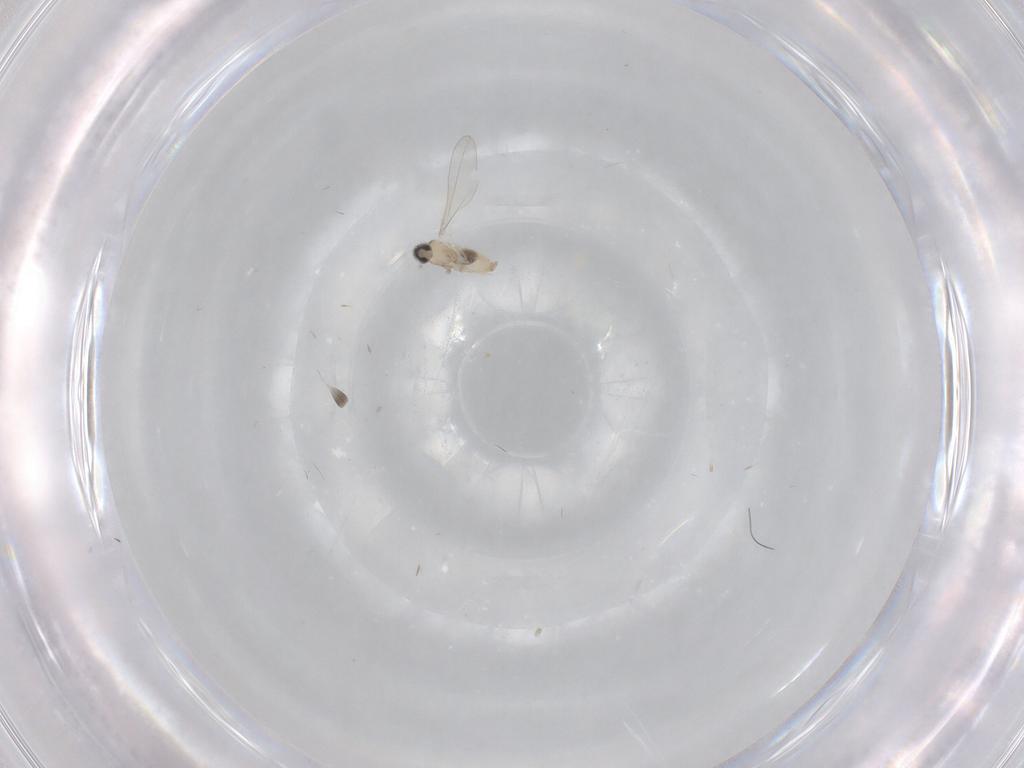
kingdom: Animalia
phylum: Arthropoda
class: Insecta
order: Diptera
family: Cecidomyiidae
